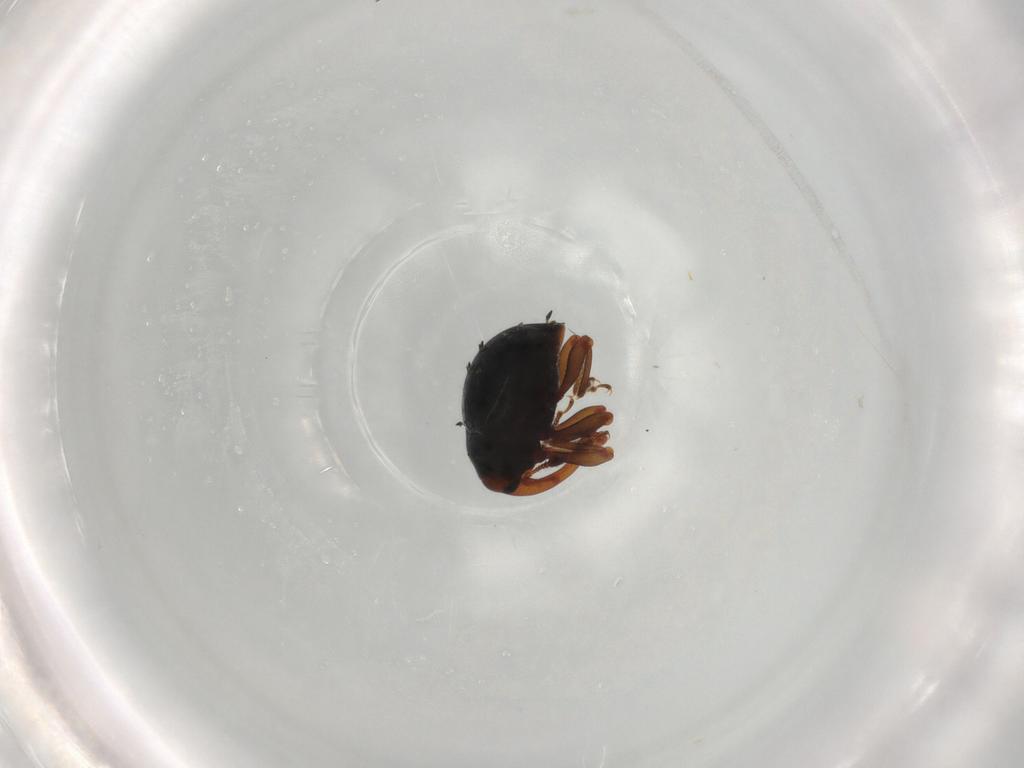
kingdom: Animalia
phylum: Arthropoda
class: Insecta
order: Coleoptera
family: Curculionidae
